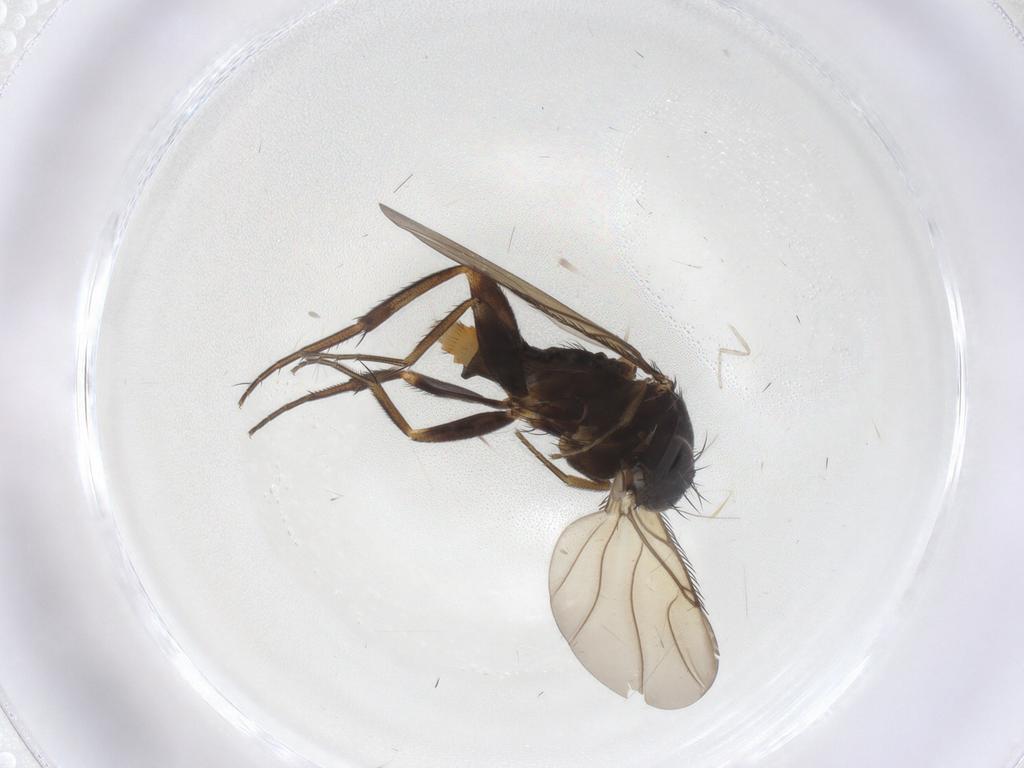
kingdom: Animalia
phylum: Arthropoda
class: Insecta
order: Diptera
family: Phoridae
